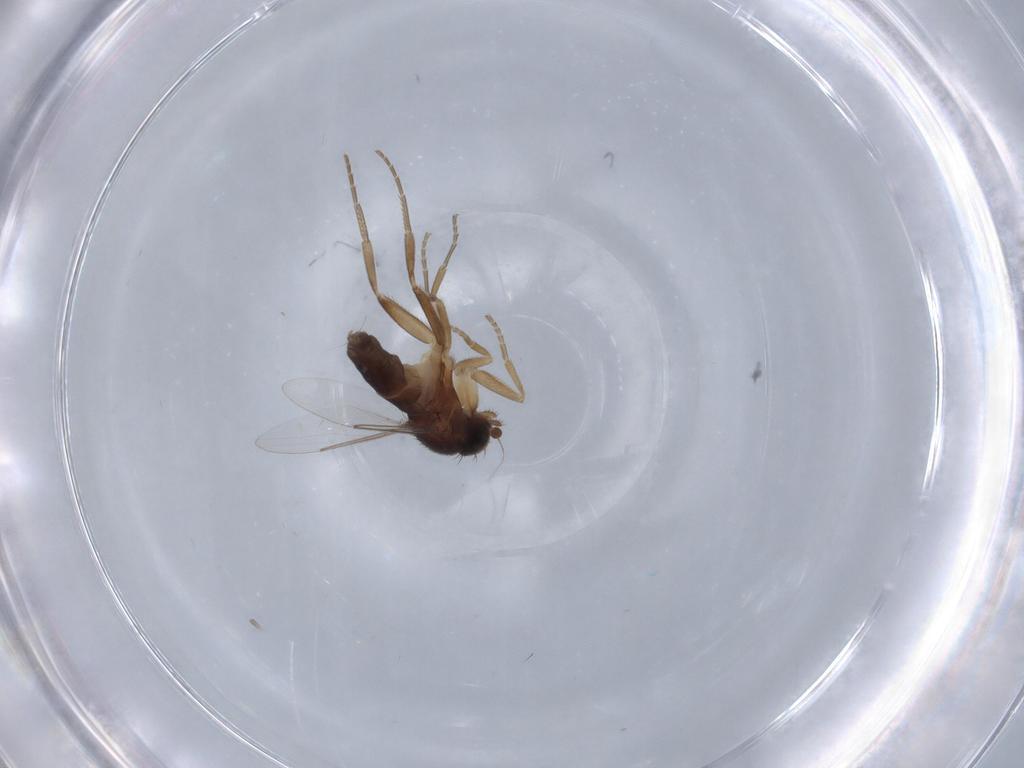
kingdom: Animalia
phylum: Arthropoda
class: Insecta
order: Diptera
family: Phoridae
